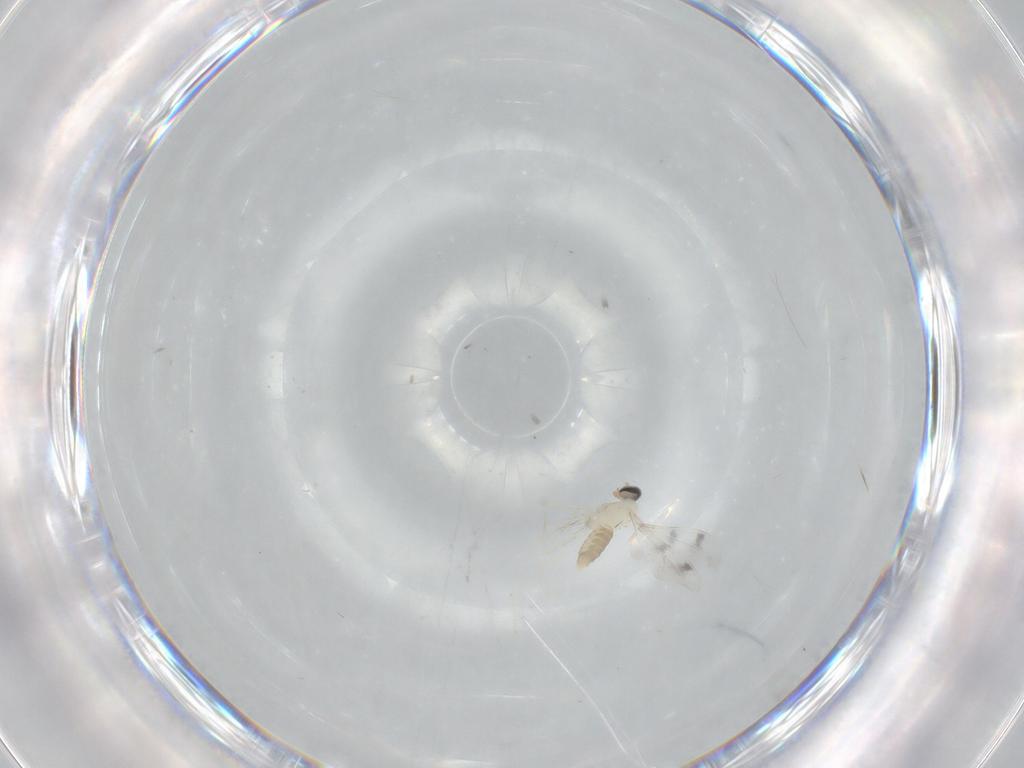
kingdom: Animalia
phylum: Arthropoda
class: Insecta
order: Diptera
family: Cecidomyiidae
